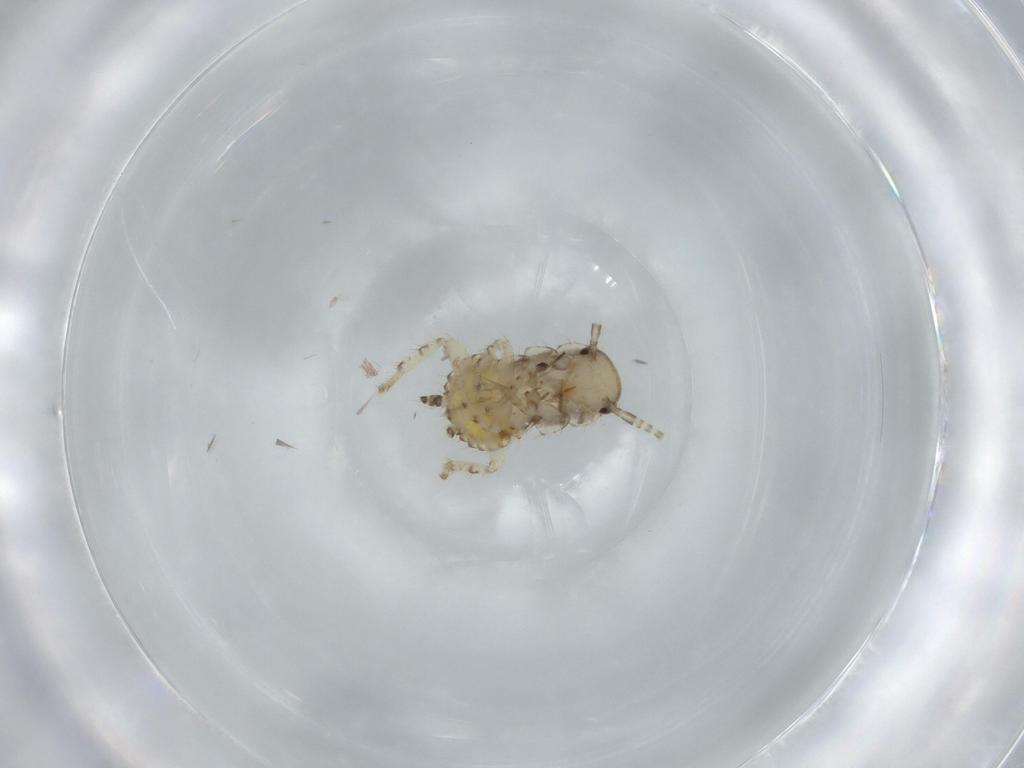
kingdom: Animalia
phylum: Arthropoda
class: Insecta
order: Blattodea
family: Ectobiidae
